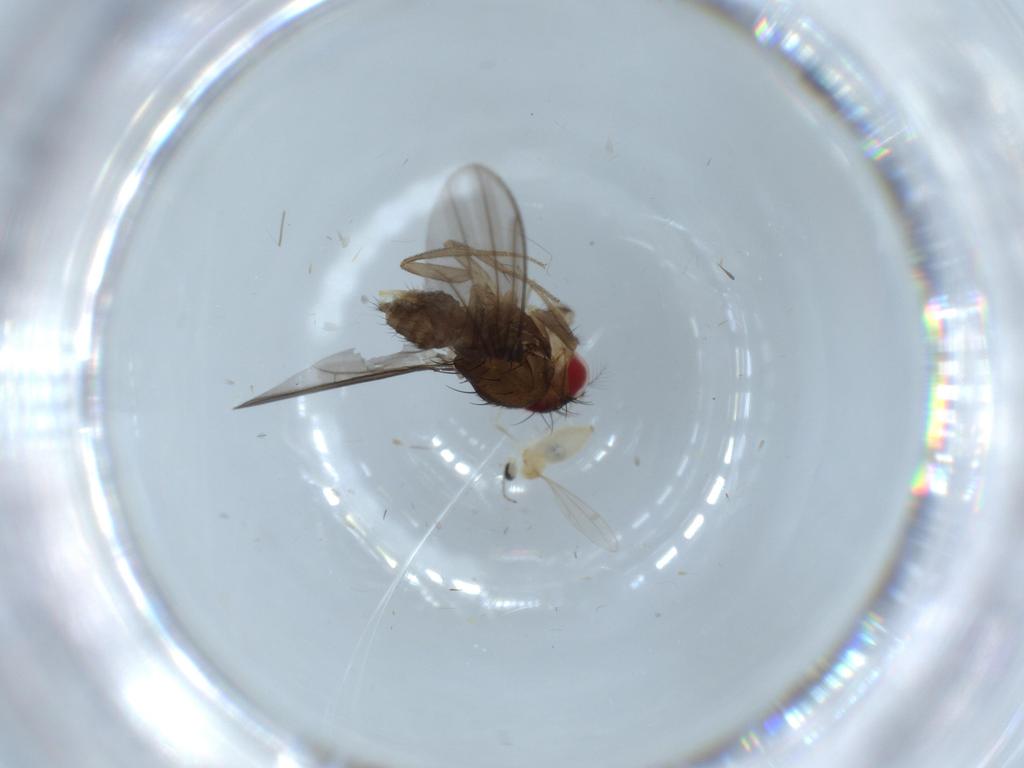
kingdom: Animalia
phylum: Arthropoda
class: Insecta
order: Diptera
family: Drosophilidae
